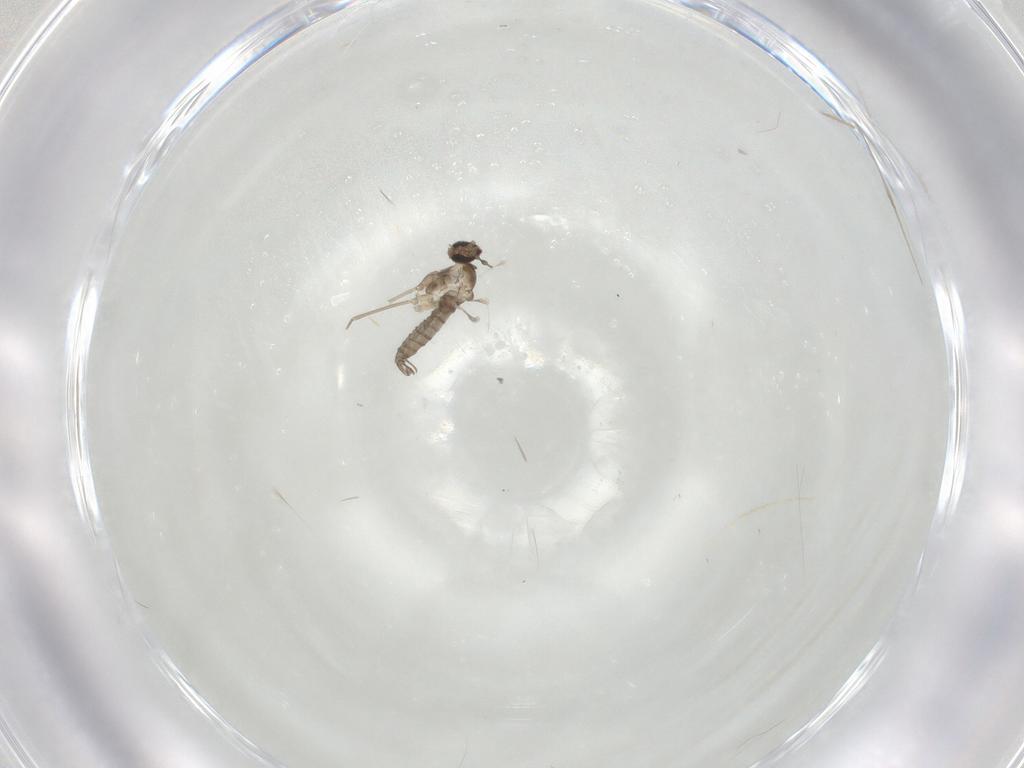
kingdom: Animalia
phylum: Arthropoda
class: Insecta
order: Diptera
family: Cecidomyiidae
